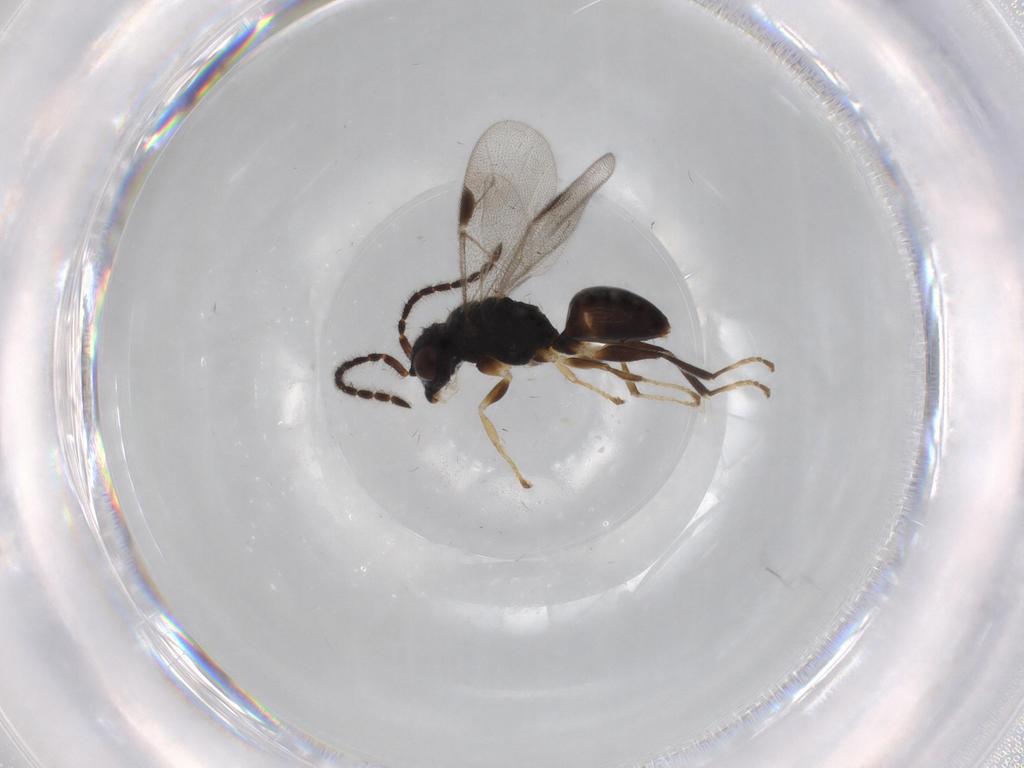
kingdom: Animalia
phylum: Arthropoda
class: Insecta
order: Hymenoptera
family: Dryinidae
